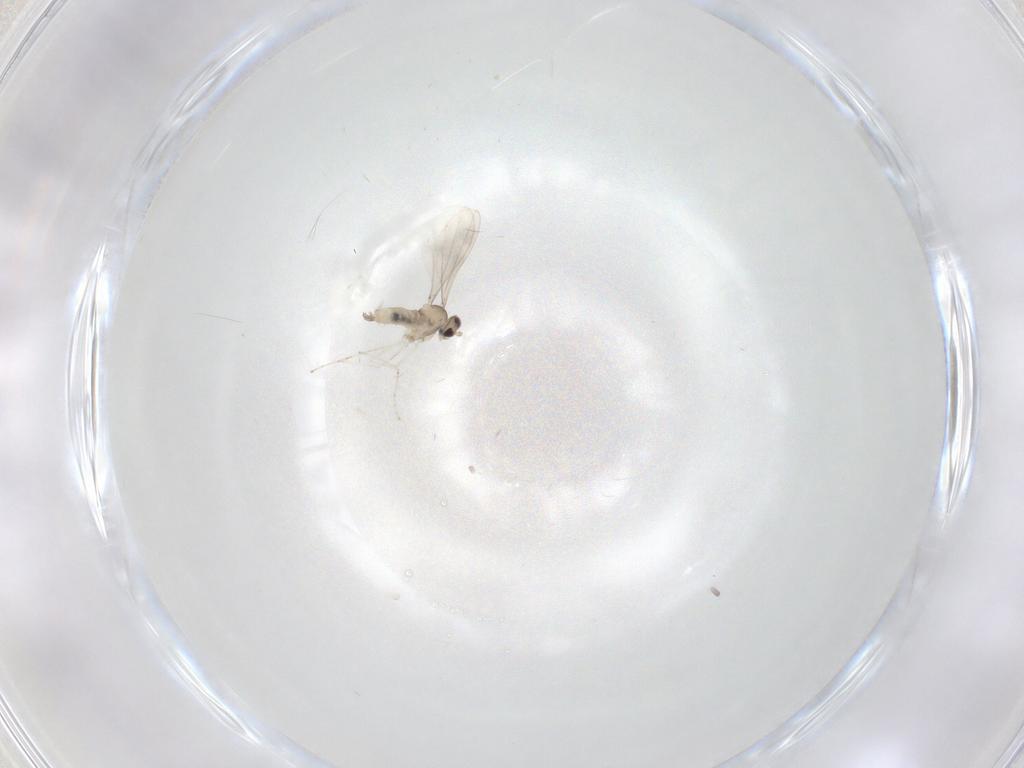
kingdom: Animalia
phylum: Arthropoda
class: Insecta
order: Diptera
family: Cecidomyiidae
